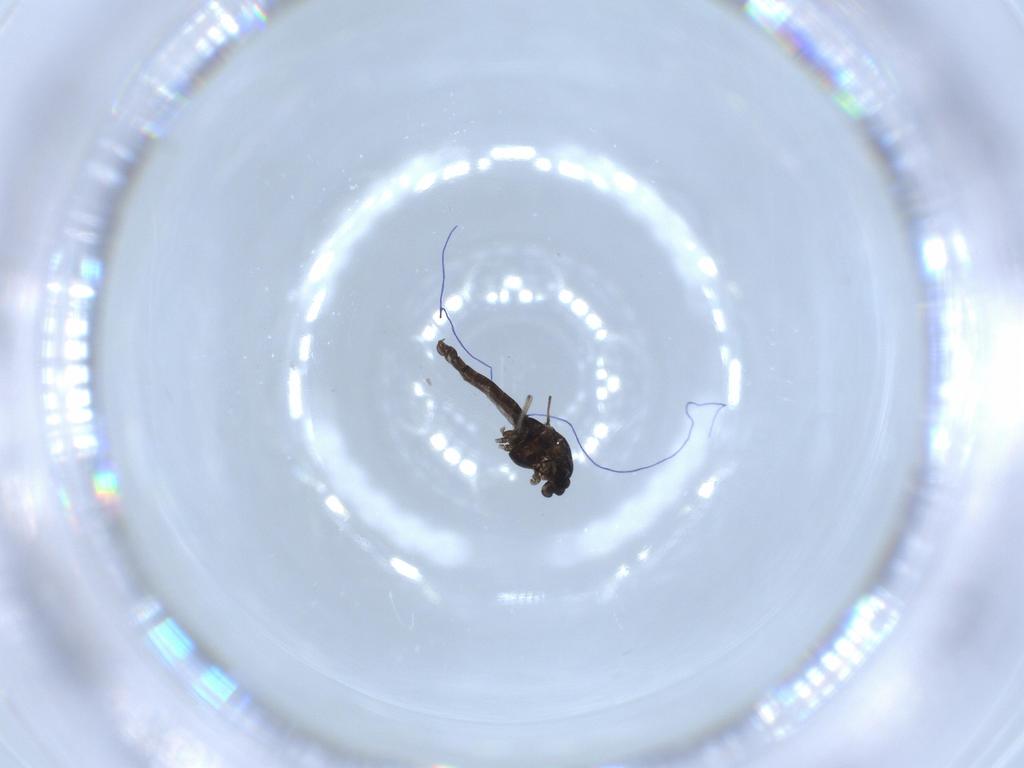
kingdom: Animalia
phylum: Arthropoda
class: Insecta
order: Diptera
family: Chironomidae
